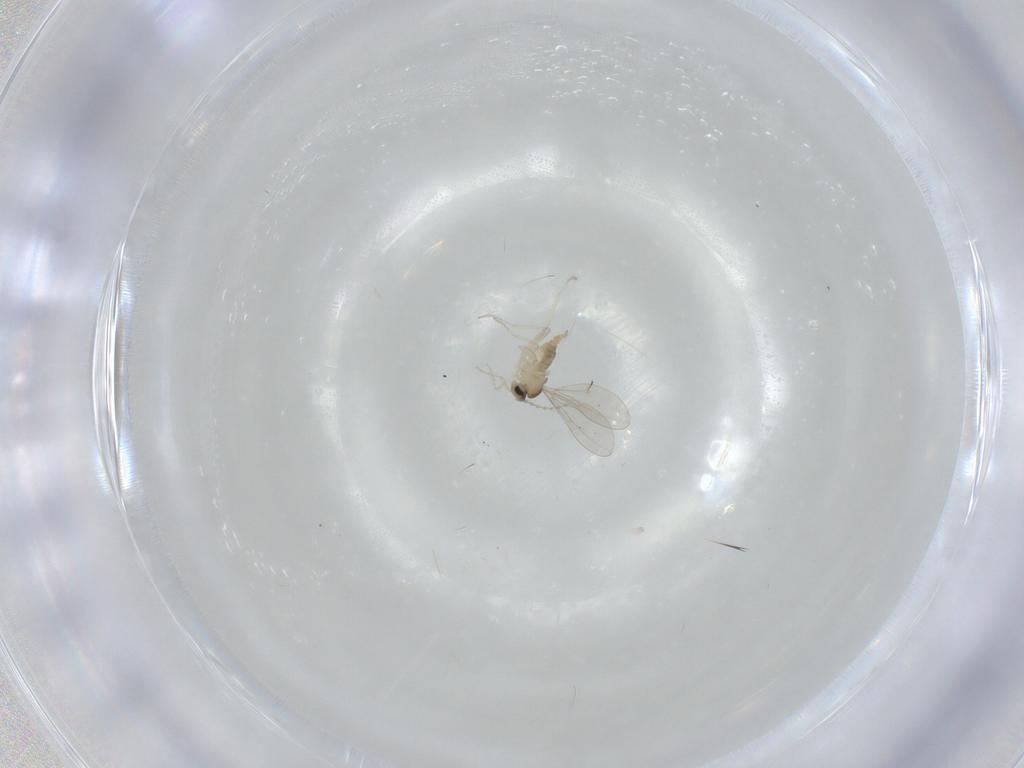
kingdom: Animalia
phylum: Arthropoda
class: Insecta
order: Diptera
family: Cecidomyiidae
